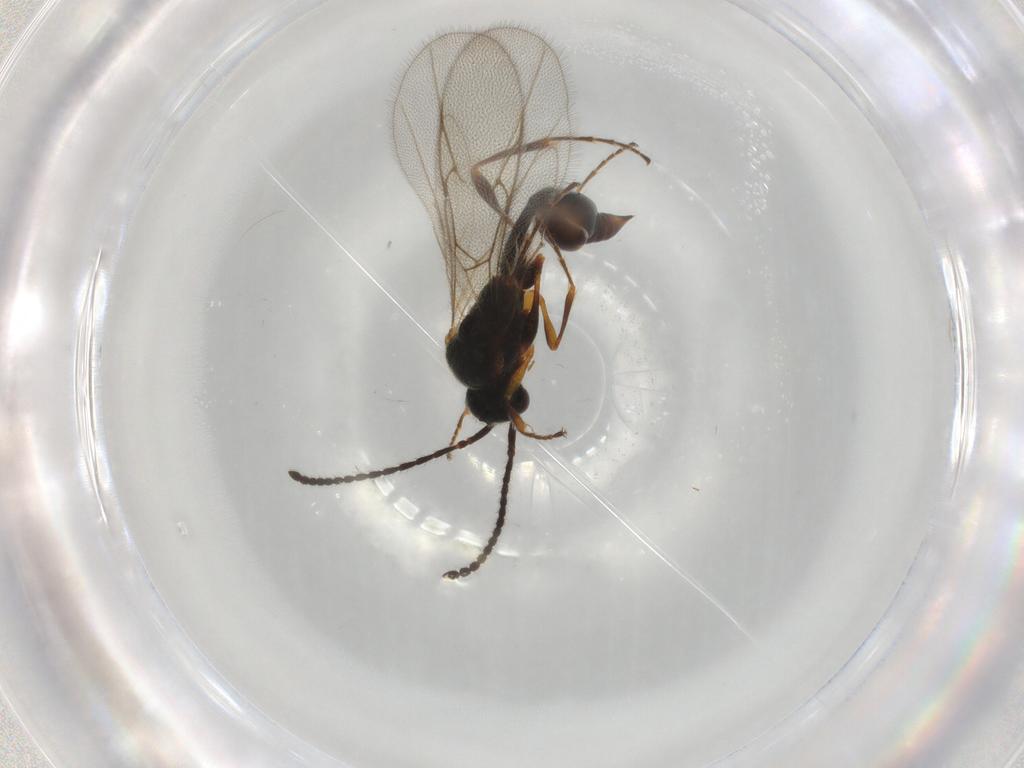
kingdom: Animalia
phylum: Arthropoda
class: Insecta
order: Hymenoptera
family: Diapriidae
